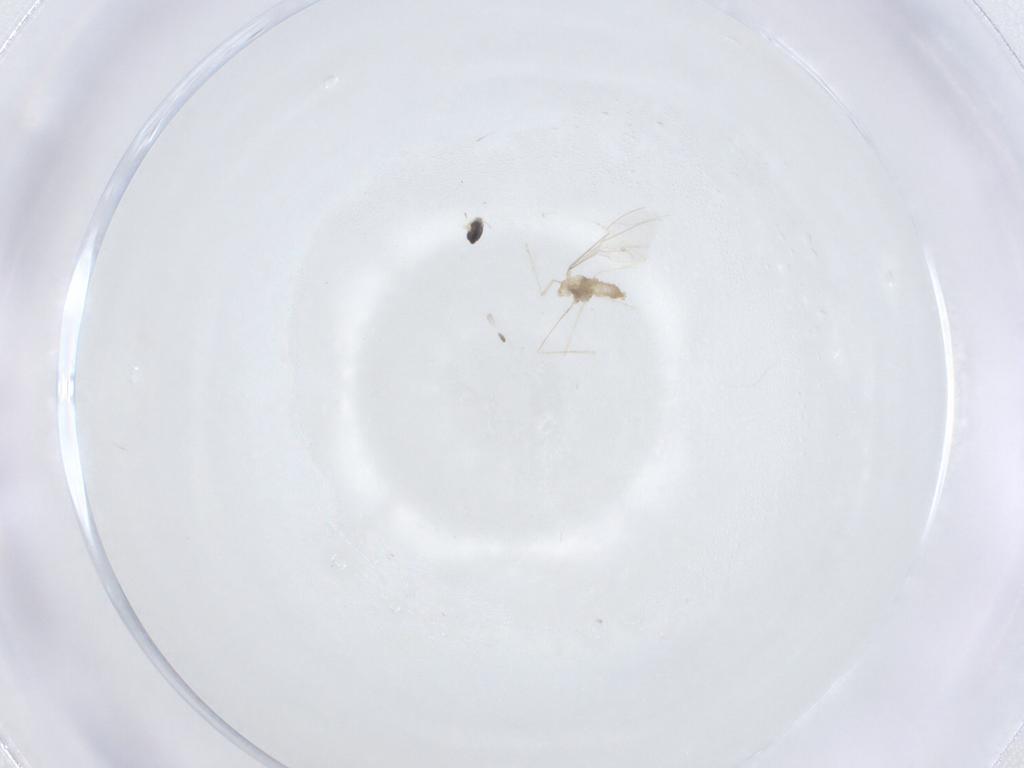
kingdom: Animalia
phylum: Arthropoda
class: Insecta
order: Diptera
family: Cecidomyiidae
